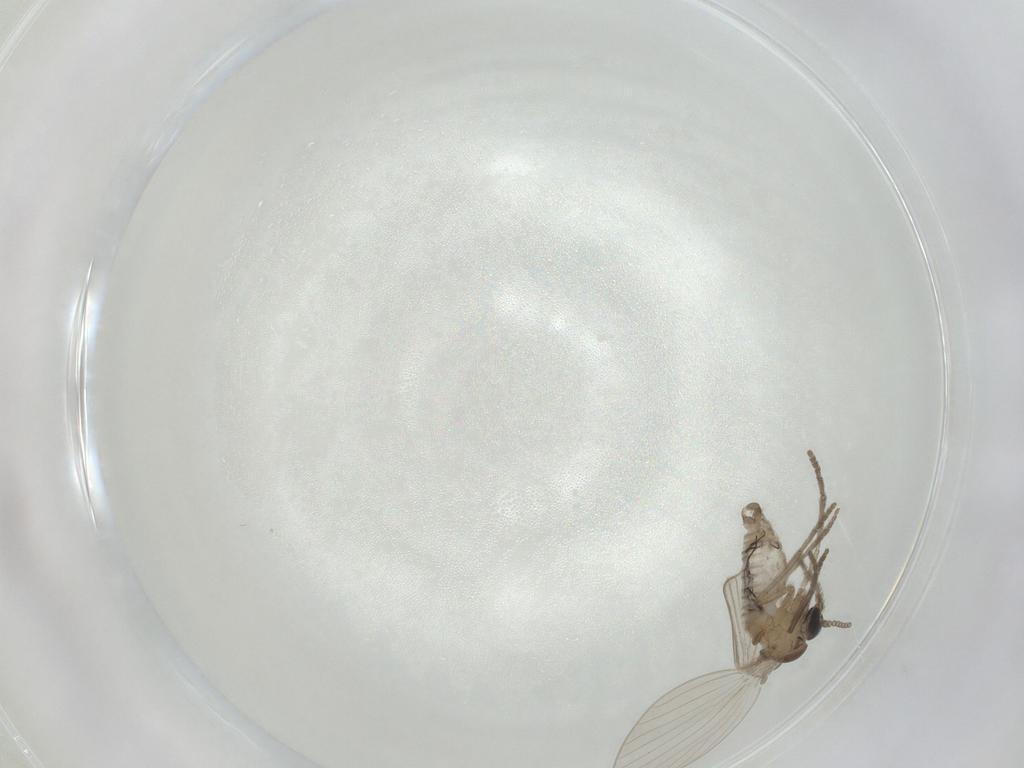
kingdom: Animalia
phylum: Arthropoda
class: Insecta
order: Diptera
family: Psychodidae
